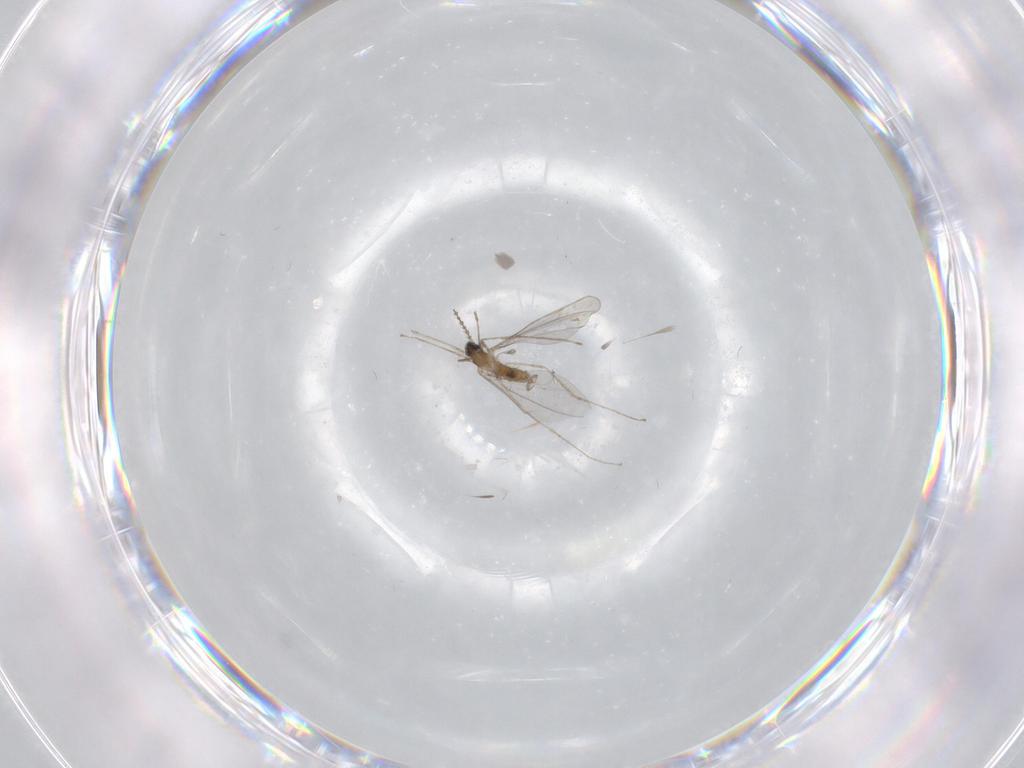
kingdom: Animalia
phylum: Arthropoda
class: Insecta
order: Diptera
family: Cecidomyiidae
